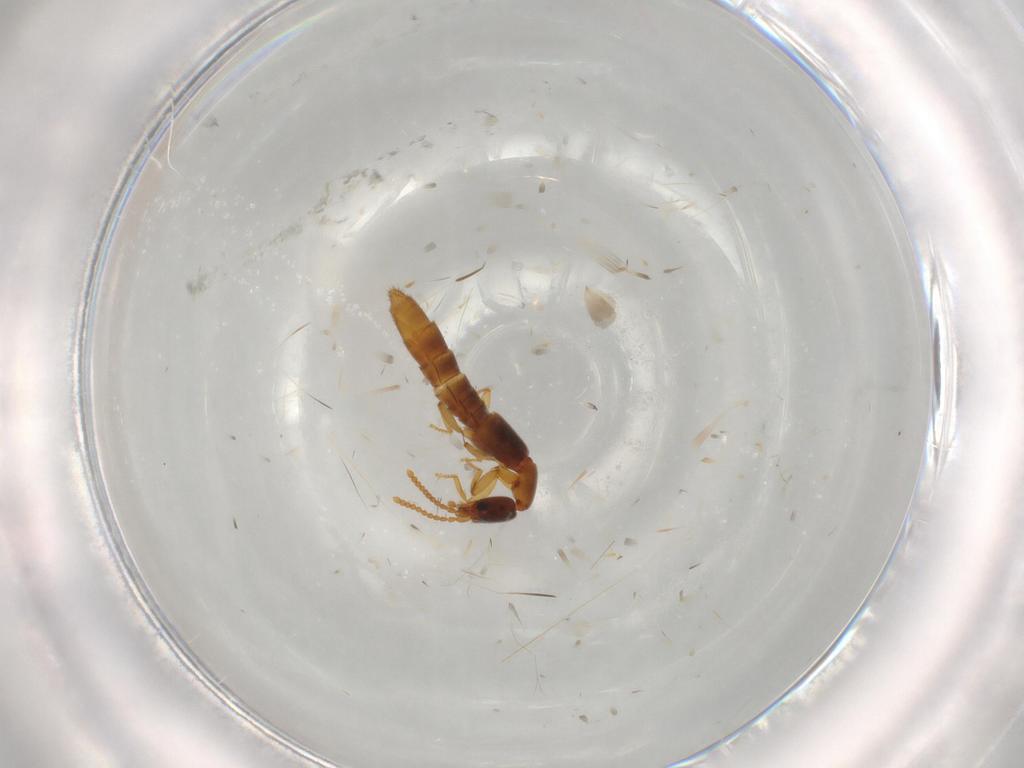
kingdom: Animalia
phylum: Arthropoda
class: Insecta
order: Coleoptera
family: Staphylinidae
